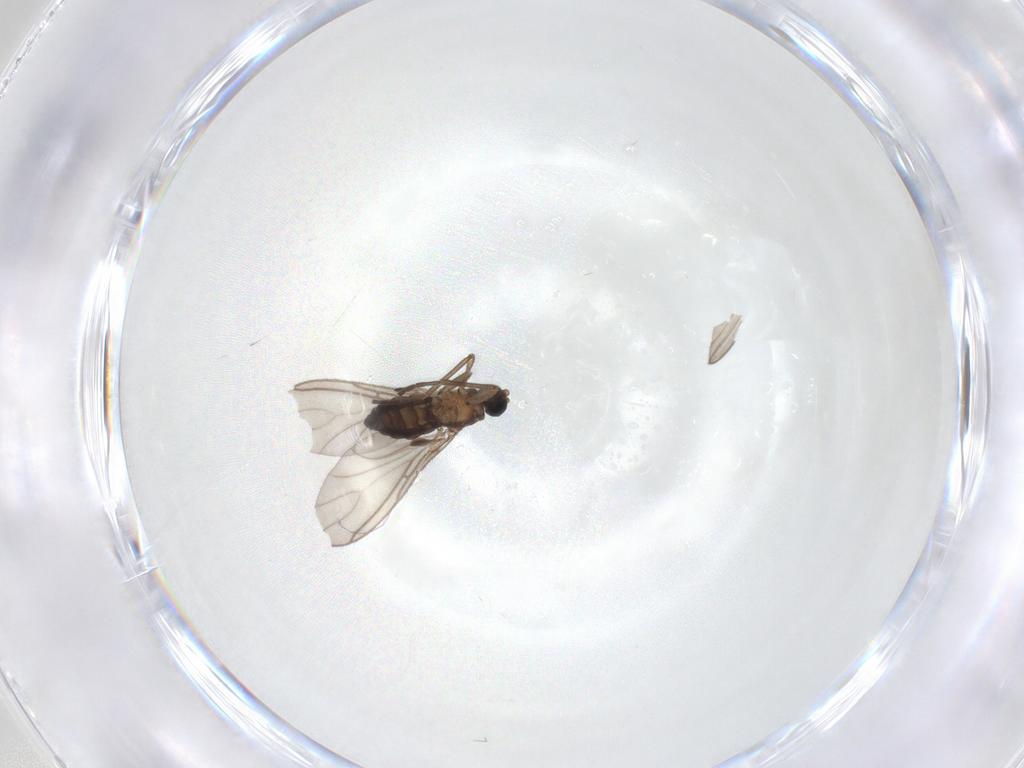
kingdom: Animalia
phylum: Arthropoda
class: Insecta
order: Diptera
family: Sciaridae
